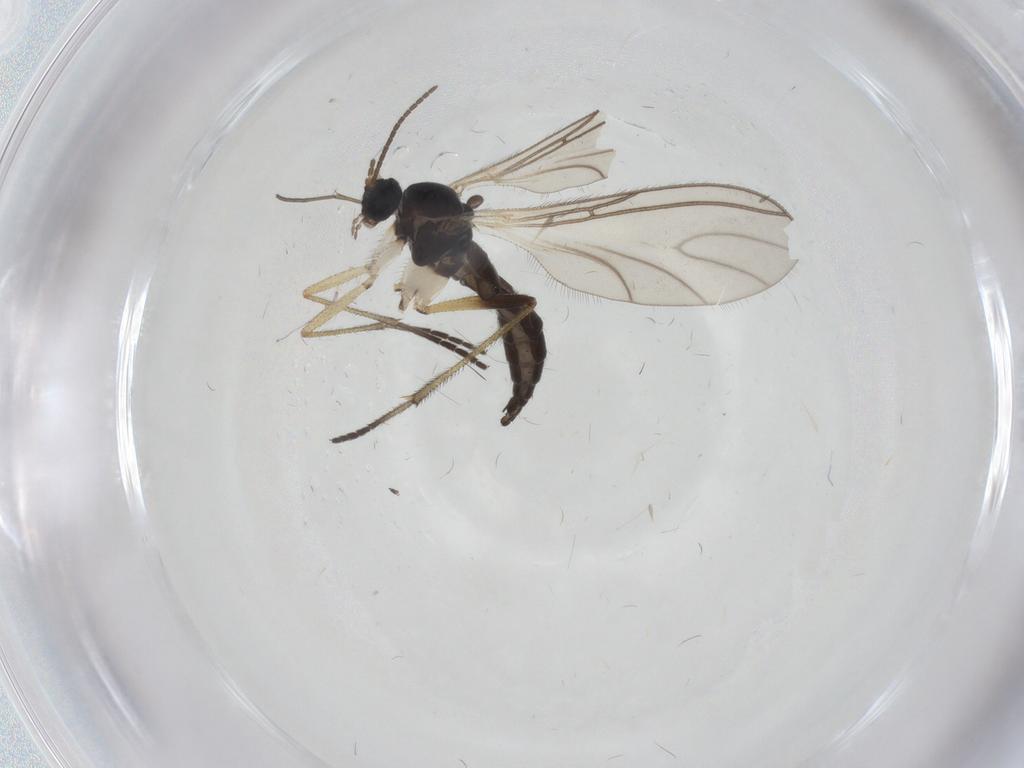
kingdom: Animalia
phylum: Arthropoda
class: Insecta
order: Diptera
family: Sciaridae
